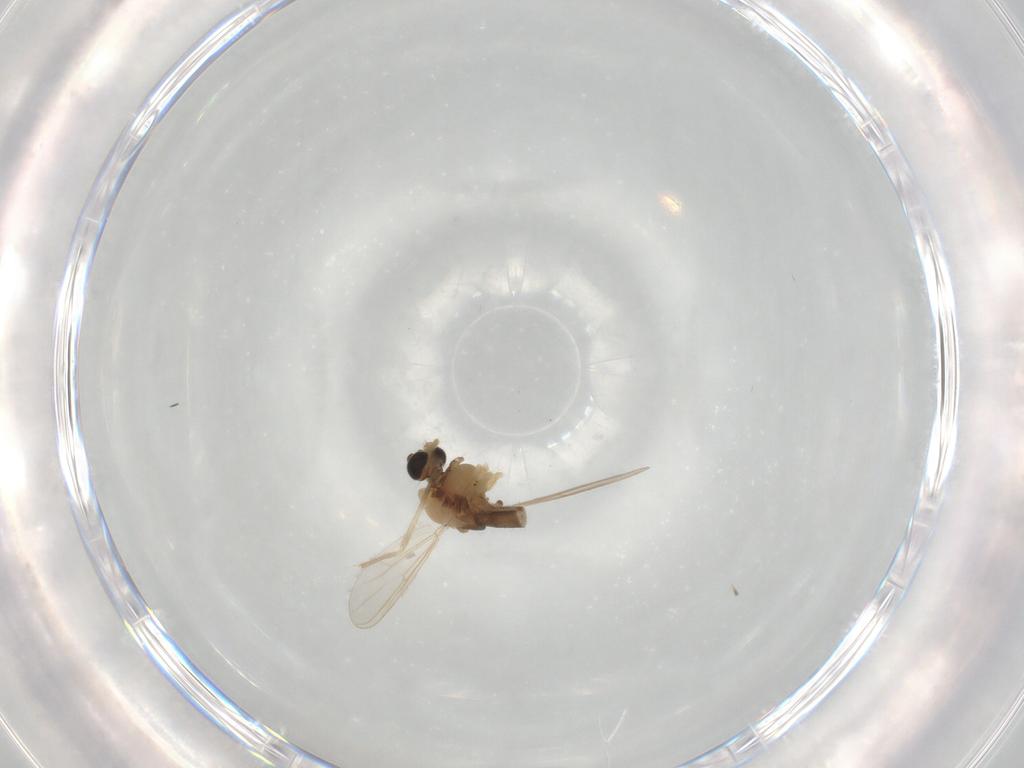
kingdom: Animalia
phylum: Arthropoda
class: Insecta
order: Diptera
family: Chironomidae
